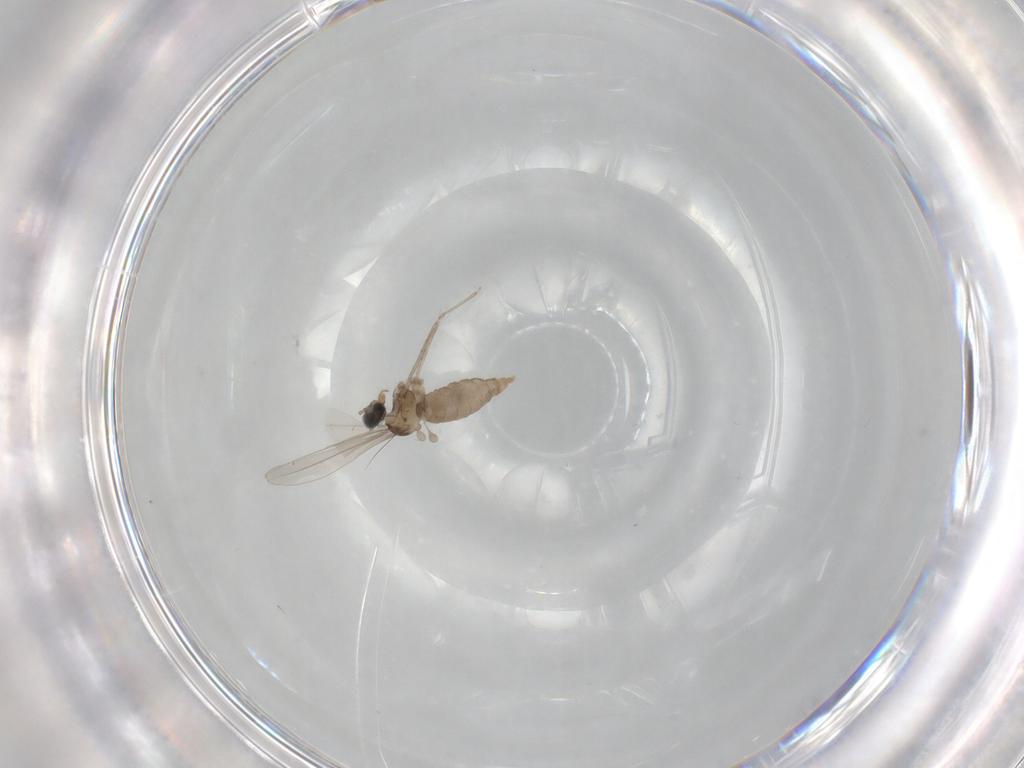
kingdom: Animalia
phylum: Arthropoda
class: Insecta
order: Diptera
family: Cecidomyiidae
